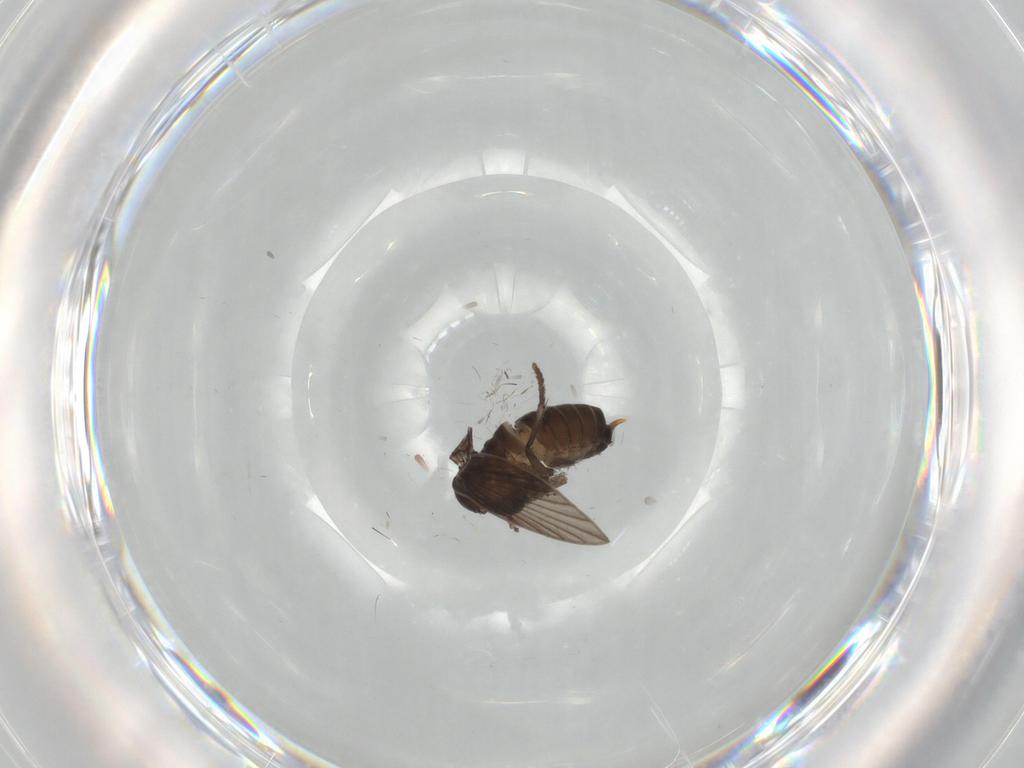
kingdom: Animalia
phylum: Arthropoda
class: Insecta
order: Diptera
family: Psychodidae
